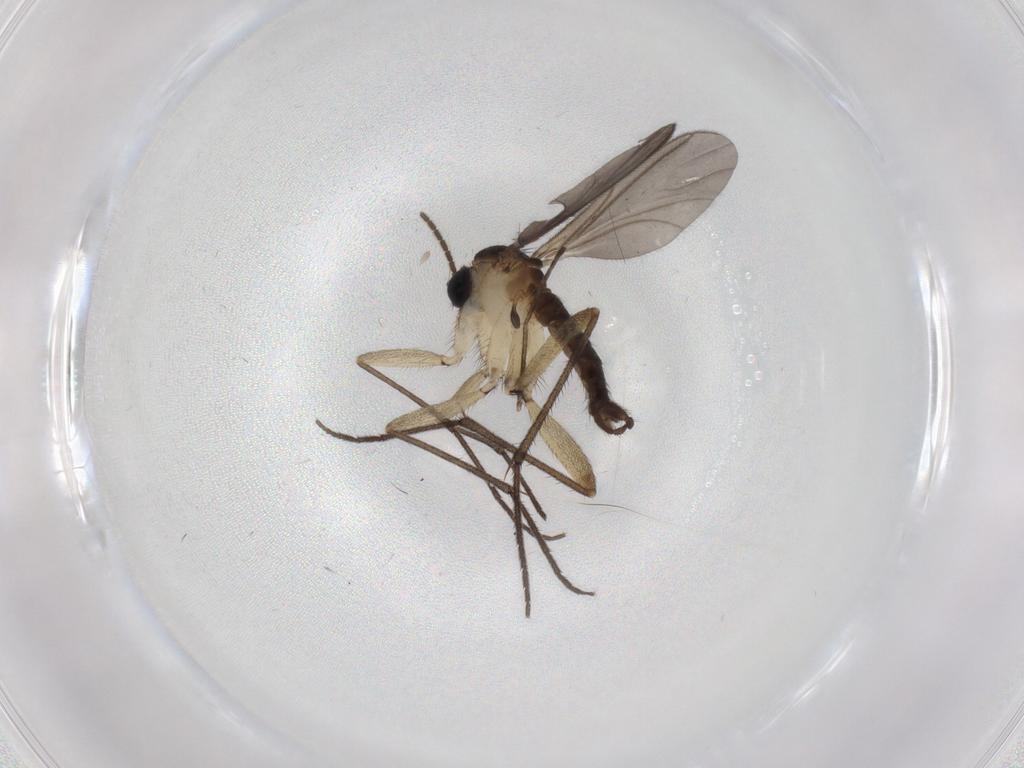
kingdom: Animalia
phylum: Arthropoda
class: Insecta
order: Diptera
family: Sciaridae
